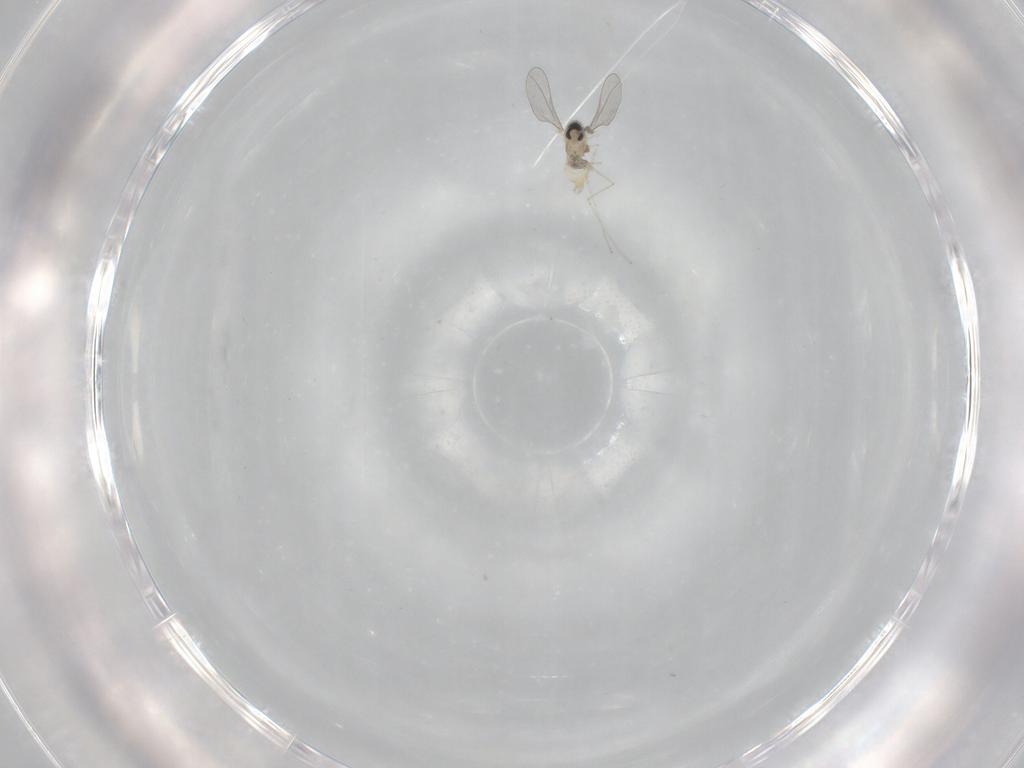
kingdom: Animalia
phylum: Arthropoda
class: Insecta
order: Diptera
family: Cecidomyiidae
